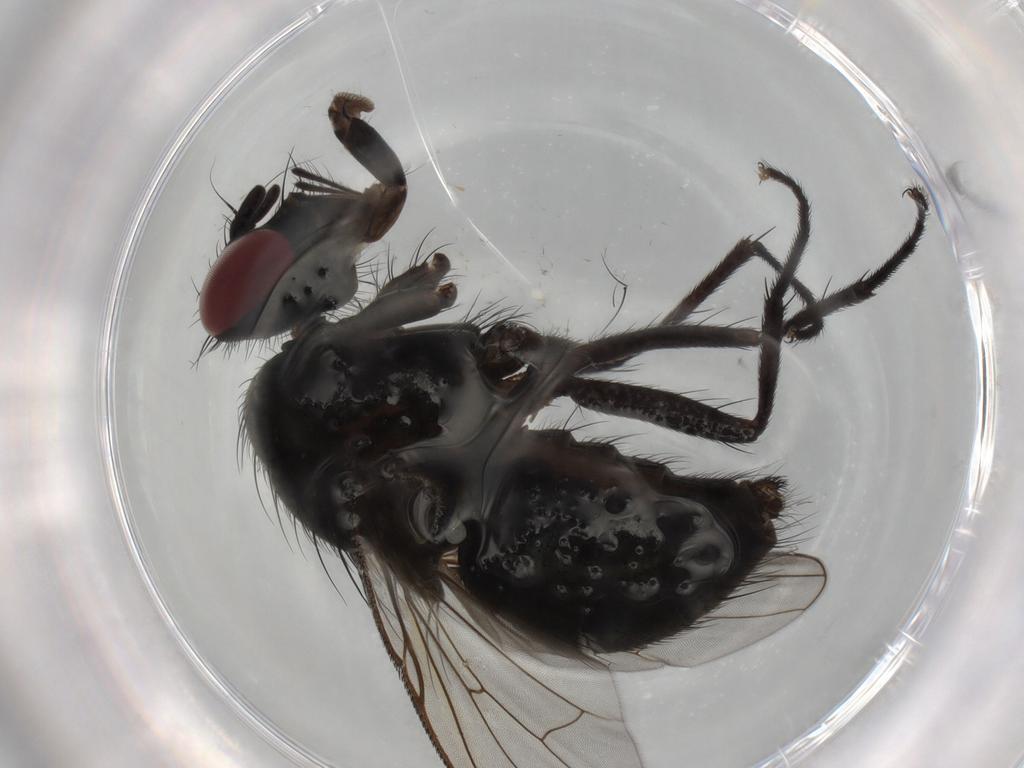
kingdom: Animalia
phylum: Arthropoda
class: Insecta
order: Diptera
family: Muscidae
